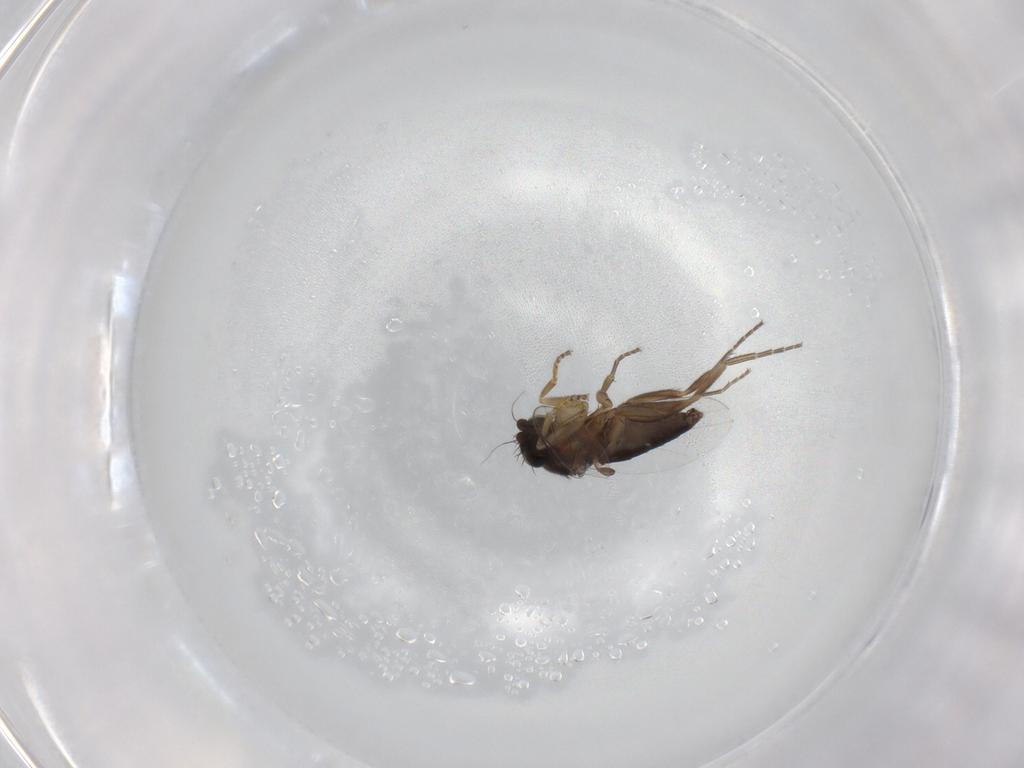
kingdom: Animalia
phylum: Arthropoda
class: Insecta
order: Diptera
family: Phoridae
